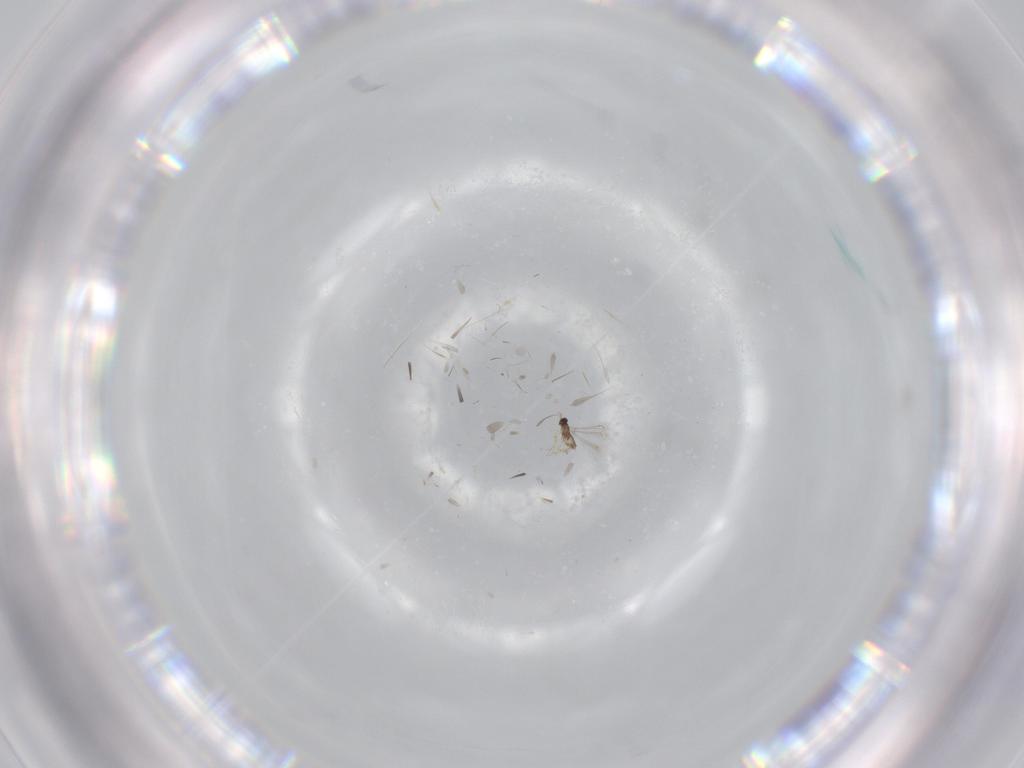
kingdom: Animalia
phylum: Arthropoda
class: Insecta
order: Hymenoptera
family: Mymaridae
